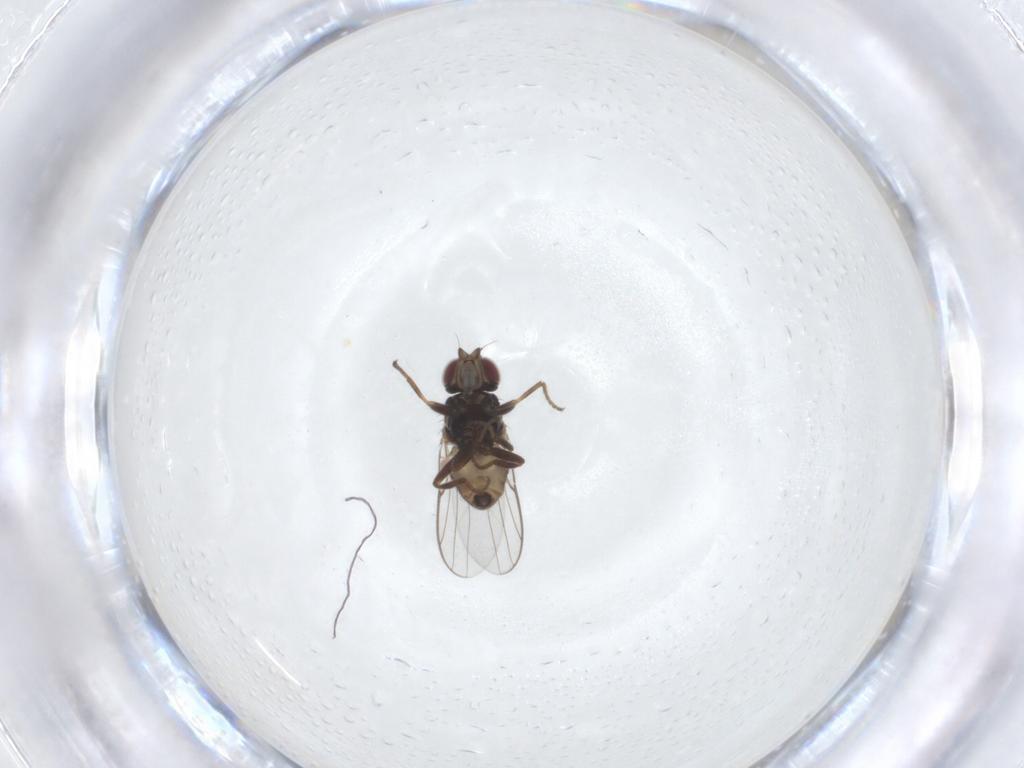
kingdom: Animalia
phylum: Arthropoda
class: Insecta
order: Diptera
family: Chloropidae
